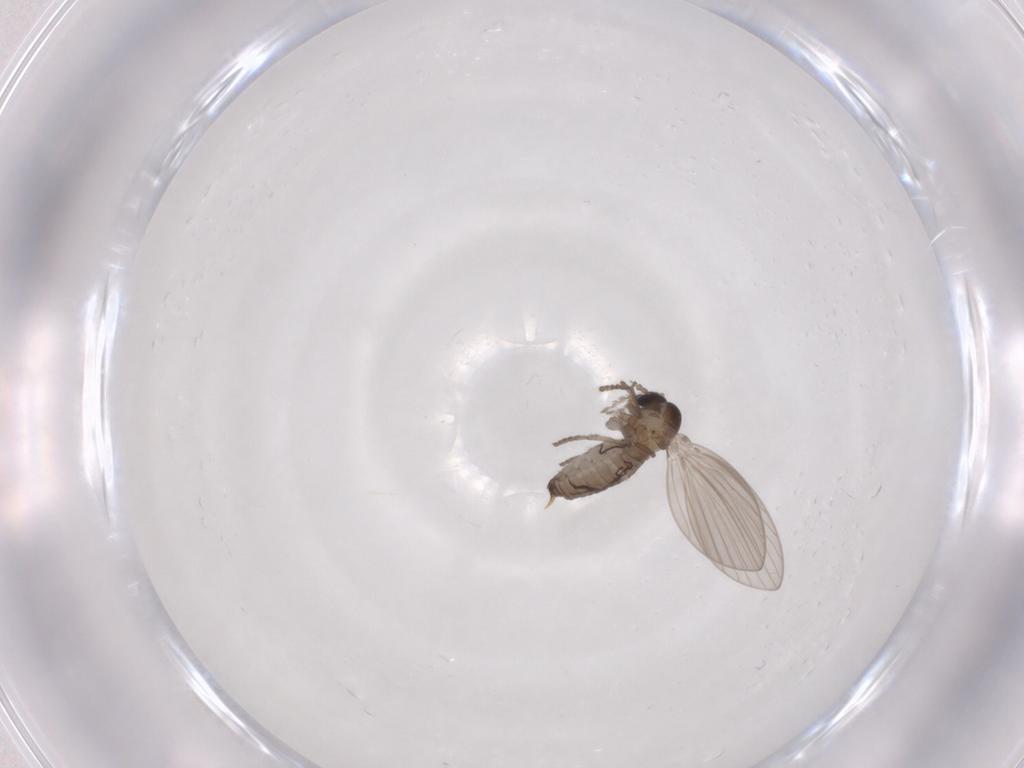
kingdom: Animalia
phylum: Arthropoda
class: Insecta
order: Diptera
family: Psychodidae
